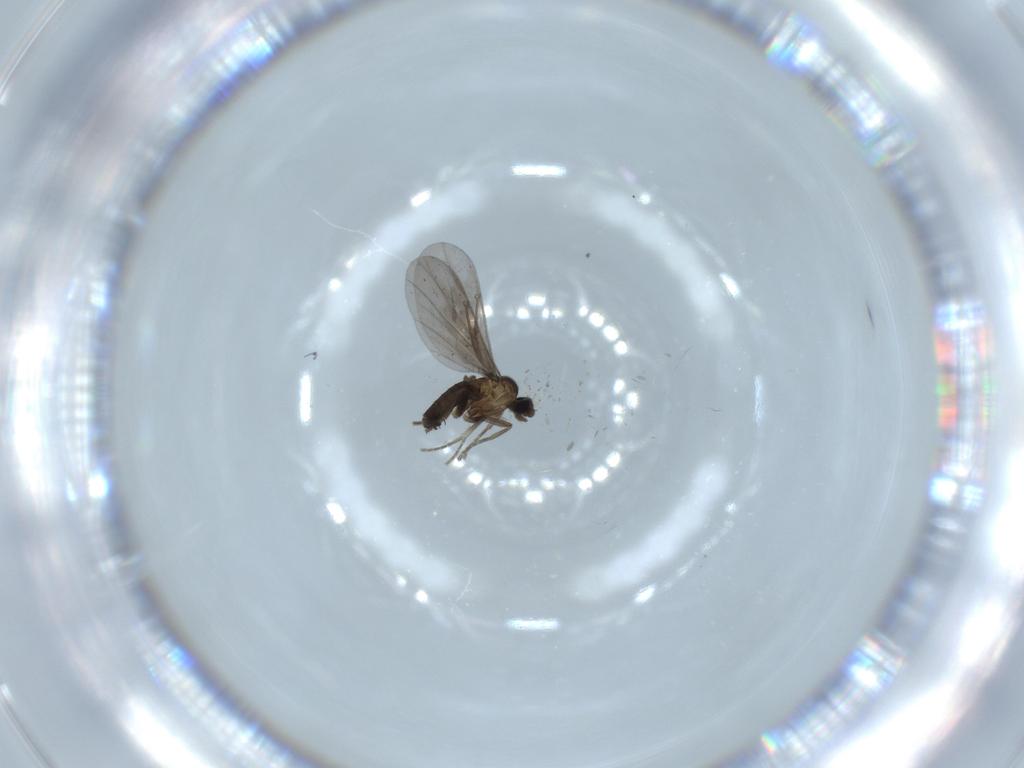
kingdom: Animalia
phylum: Arthropoda
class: Insecta
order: Diptera
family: Phoridae
